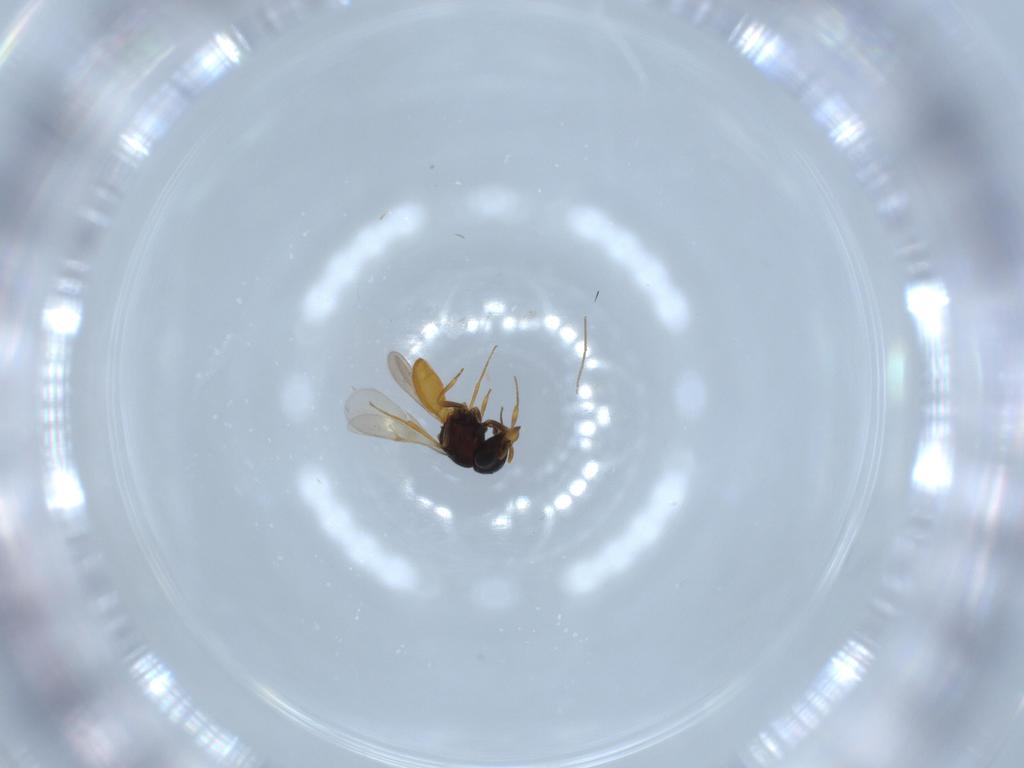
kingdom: Animalia
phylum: Arthropoda
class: Insecta
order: Hymenoptera
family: Scelionidae
